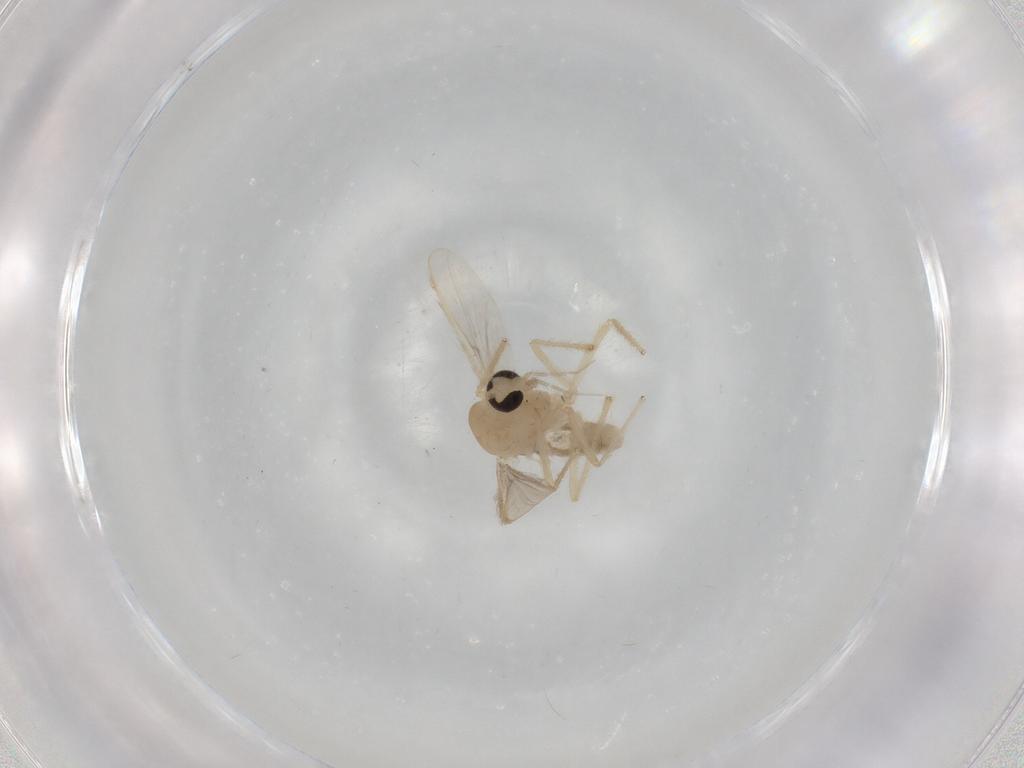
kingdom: Animalia
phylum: Arthropoda
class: Insecta
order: Diptera
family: Chironomidae
